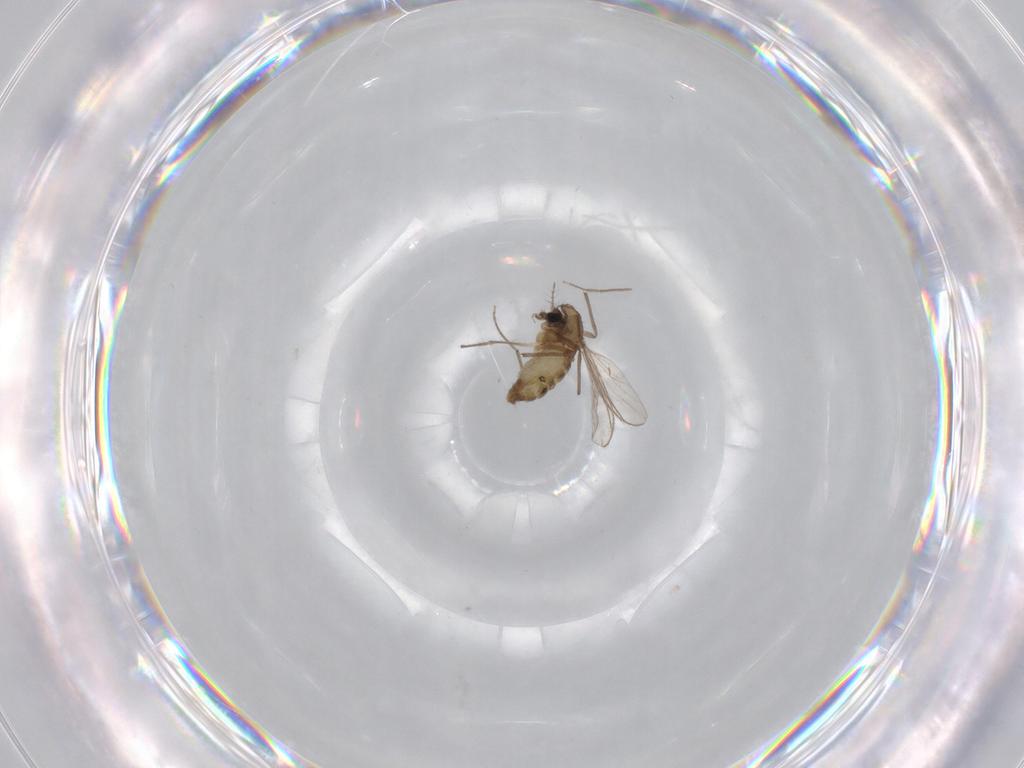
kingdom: Animalia
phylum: Arthropoda
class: Insecta
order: Diptera
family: Chironomidae
